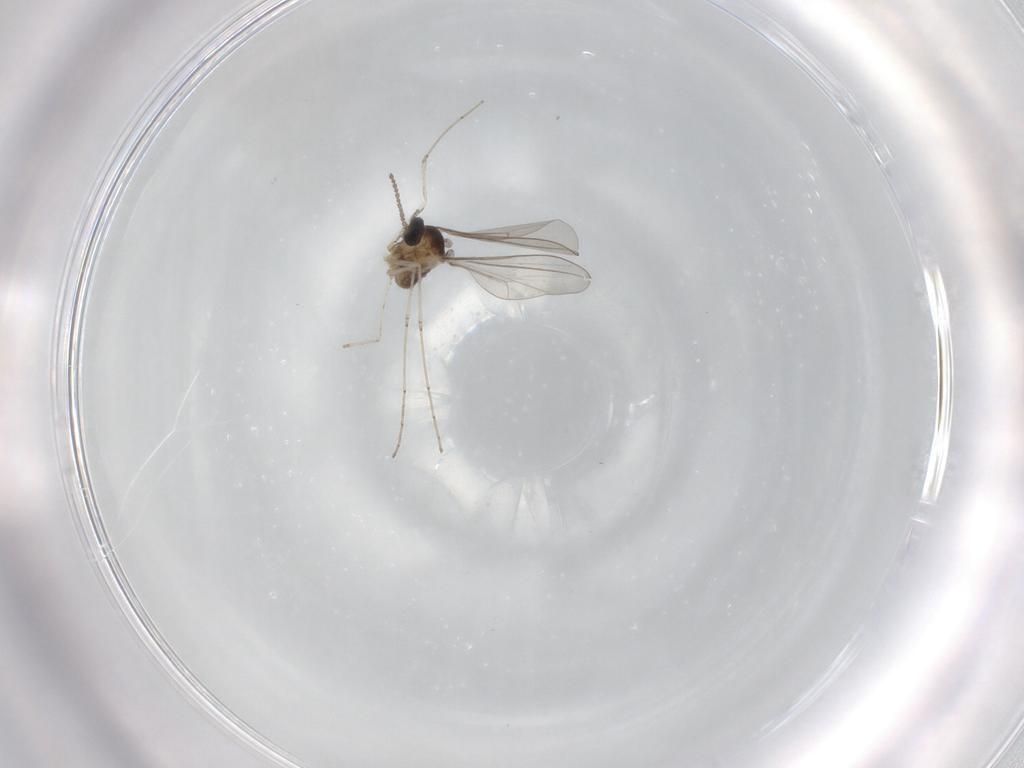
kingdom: Animalia
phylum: Arthropoda
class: Insecta
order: Diptera
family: Cecidomyiidae
